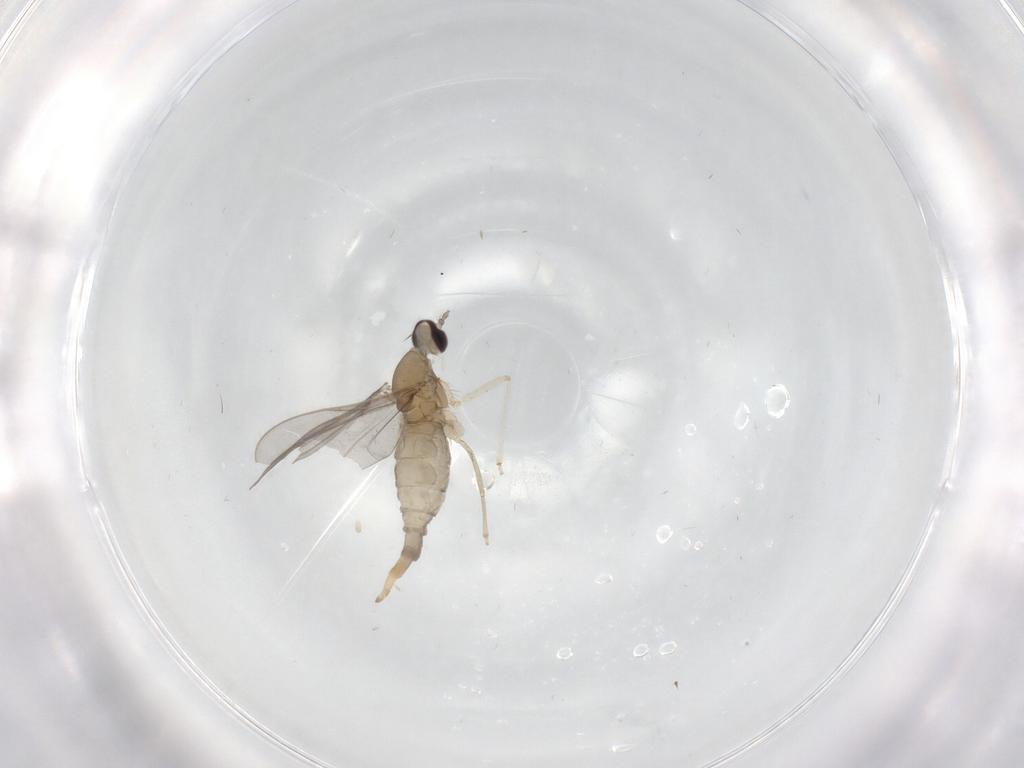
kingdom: Animalia
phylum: Arthropoda
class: Insecta
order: Diptera
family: Cecidomyiidae
